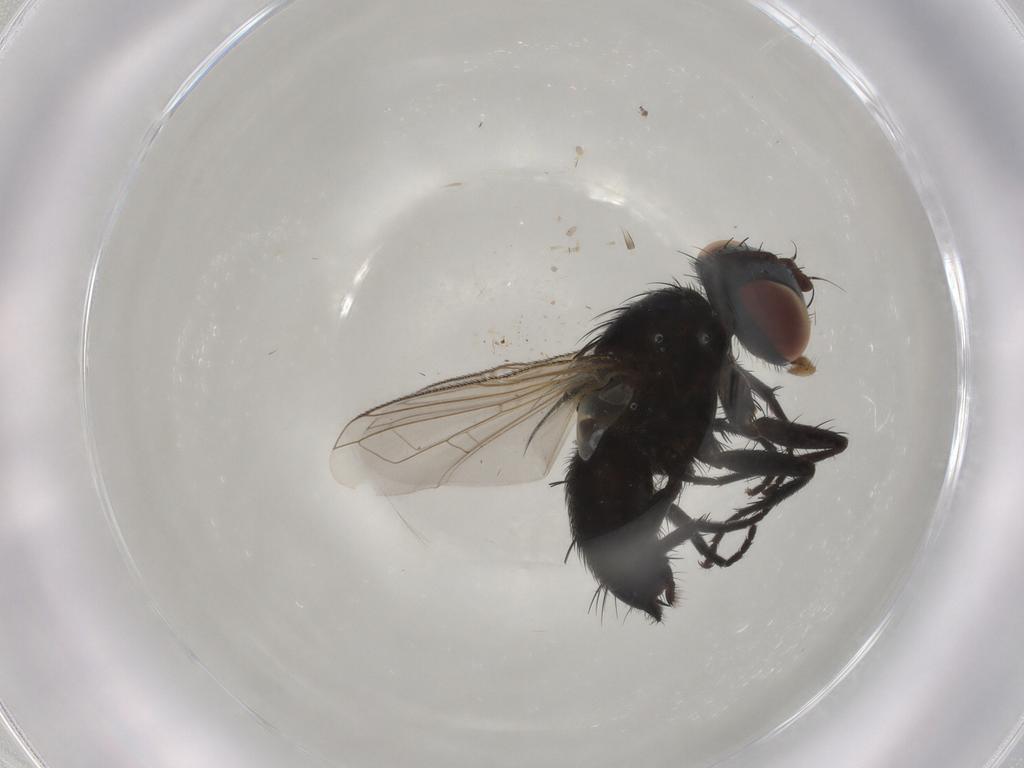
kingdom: Animalia
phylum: Arthropoda
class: Insecta
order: Diptera
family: Tachinidae
